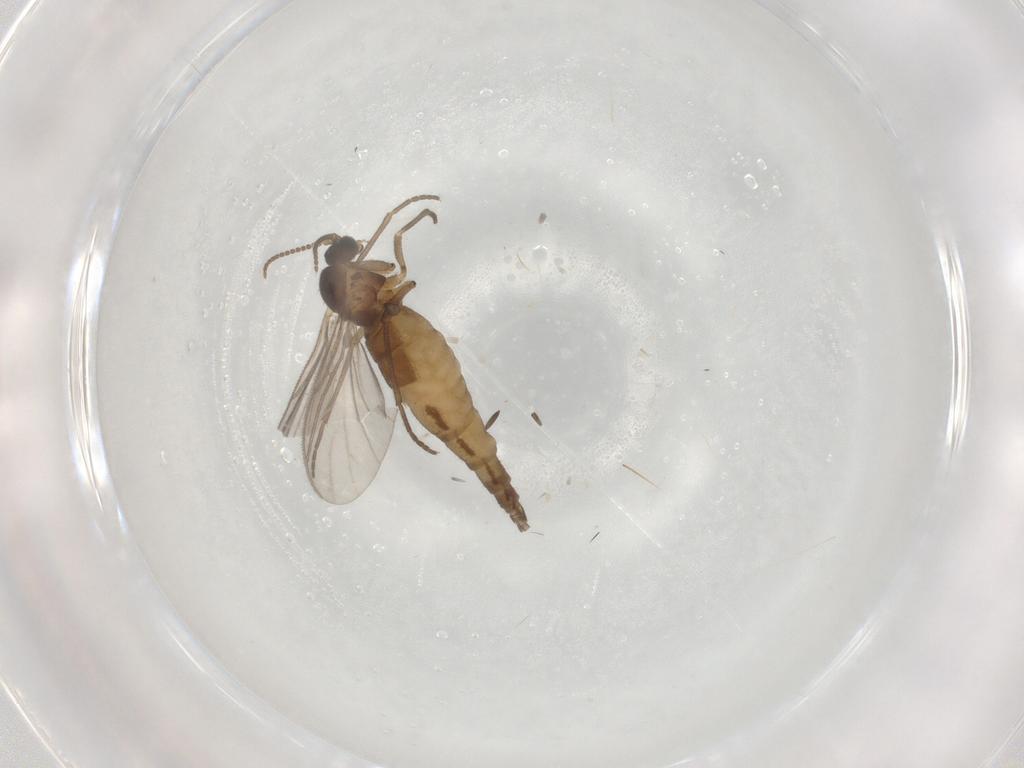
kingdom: Animalia
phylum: Arthropoda
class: Insecta
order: Diptera
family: Sciaridae
